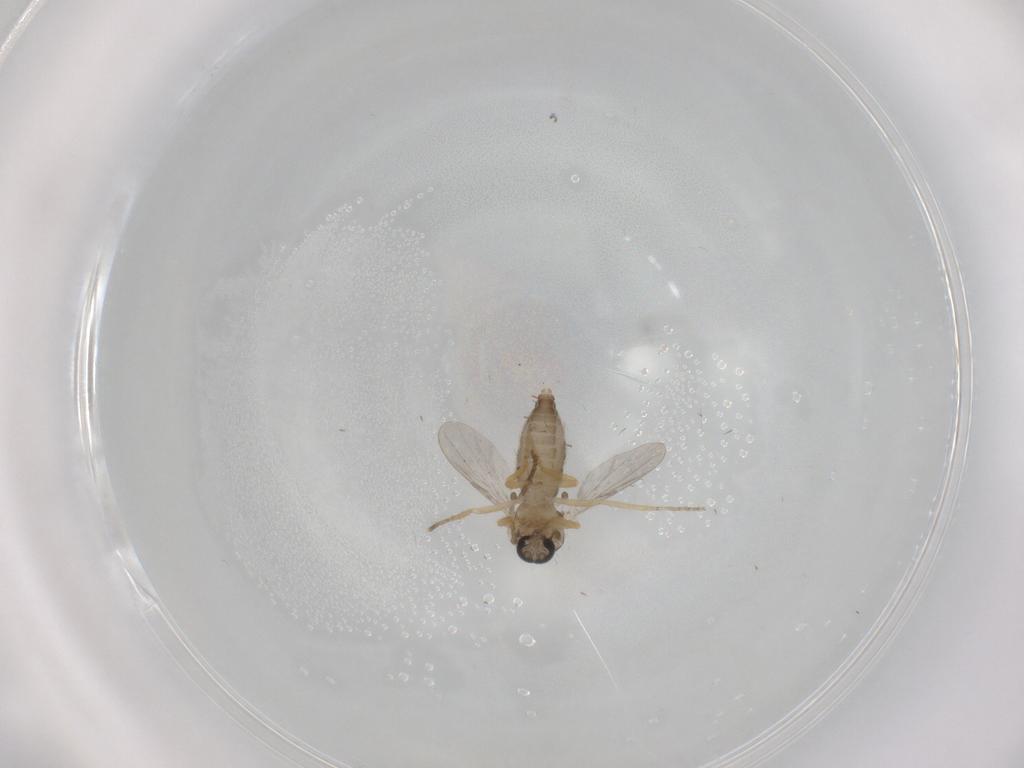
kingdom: Animalia
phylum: Arthropoda
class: Insecta
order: Diptera
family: Ceratopogonidae
